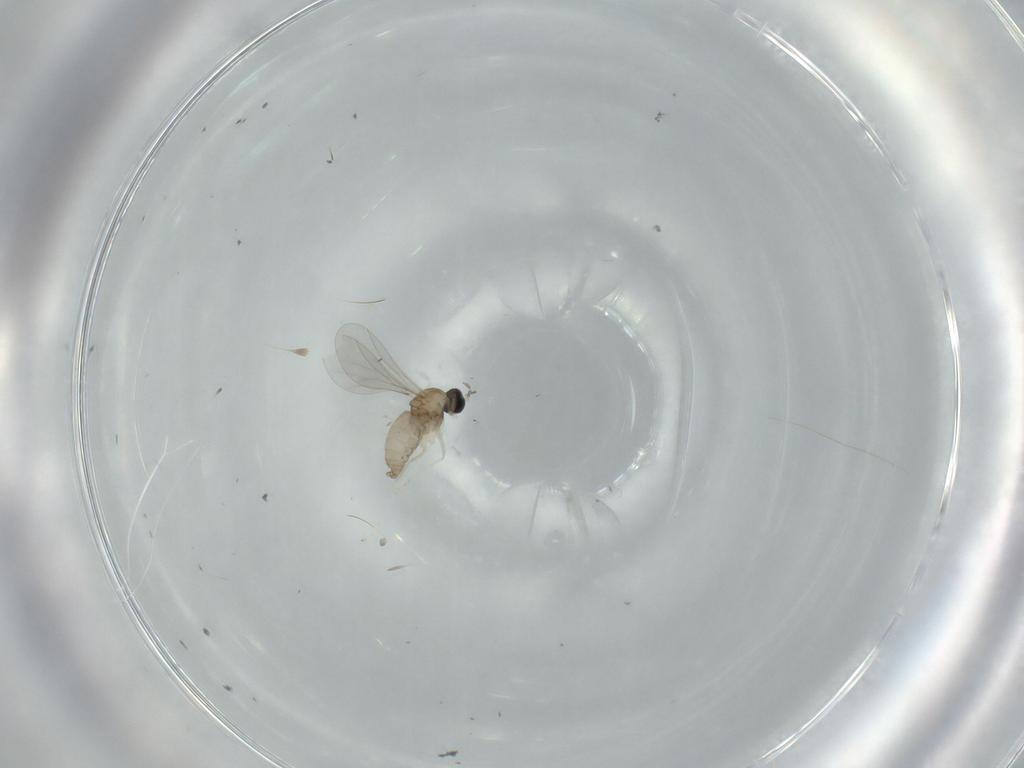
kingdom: Animalia
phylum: Arthropoda
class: Insecta
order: Diptera
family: Cecidomyiidae
